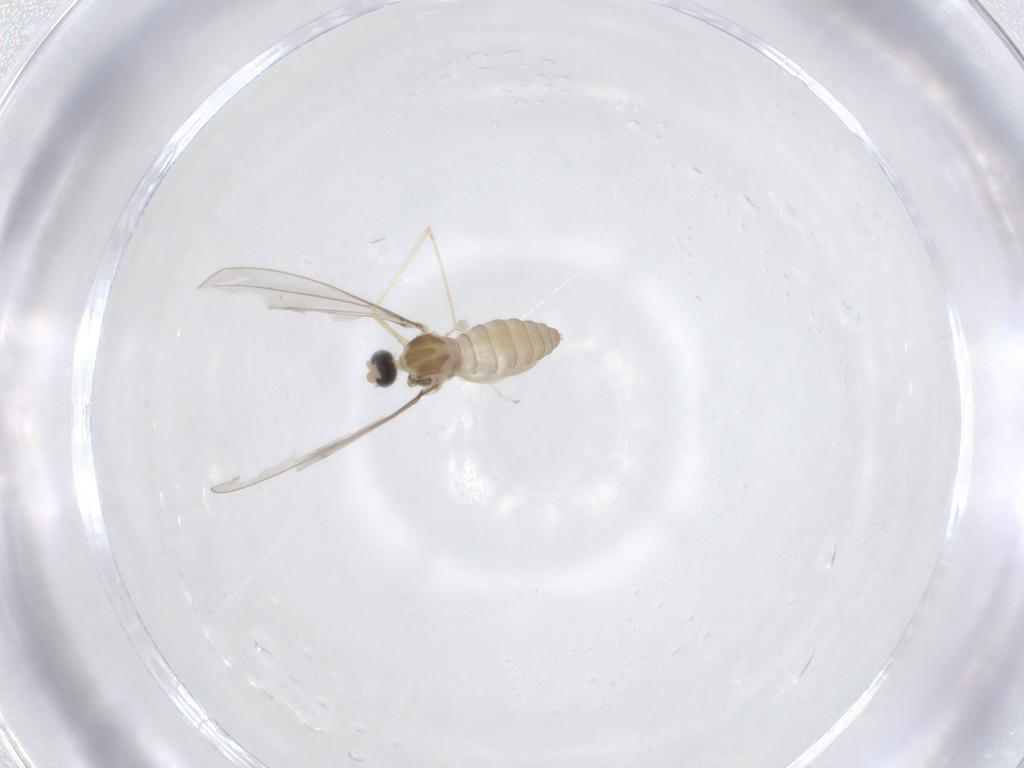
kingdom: Animalia
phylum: Arthropoda
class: Insecta
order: Diptera
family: Cecidomyiidae
